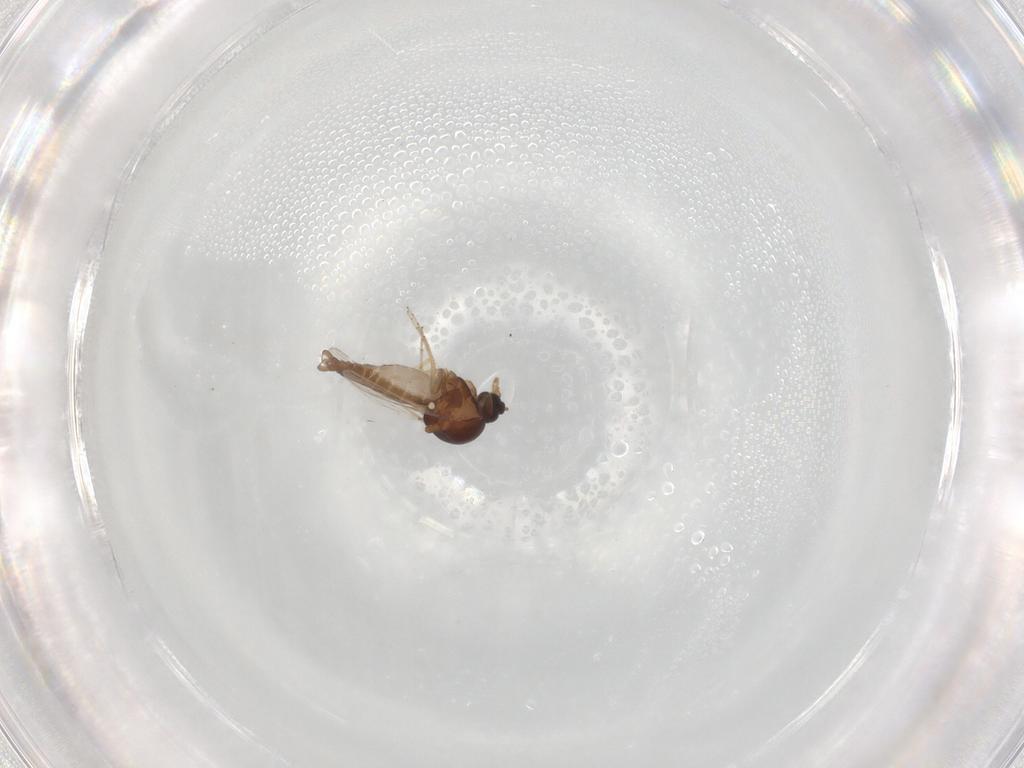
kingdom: Animalia
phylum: Arthropoda
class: Insecta
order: Diptera
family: Ceratopogonidae
